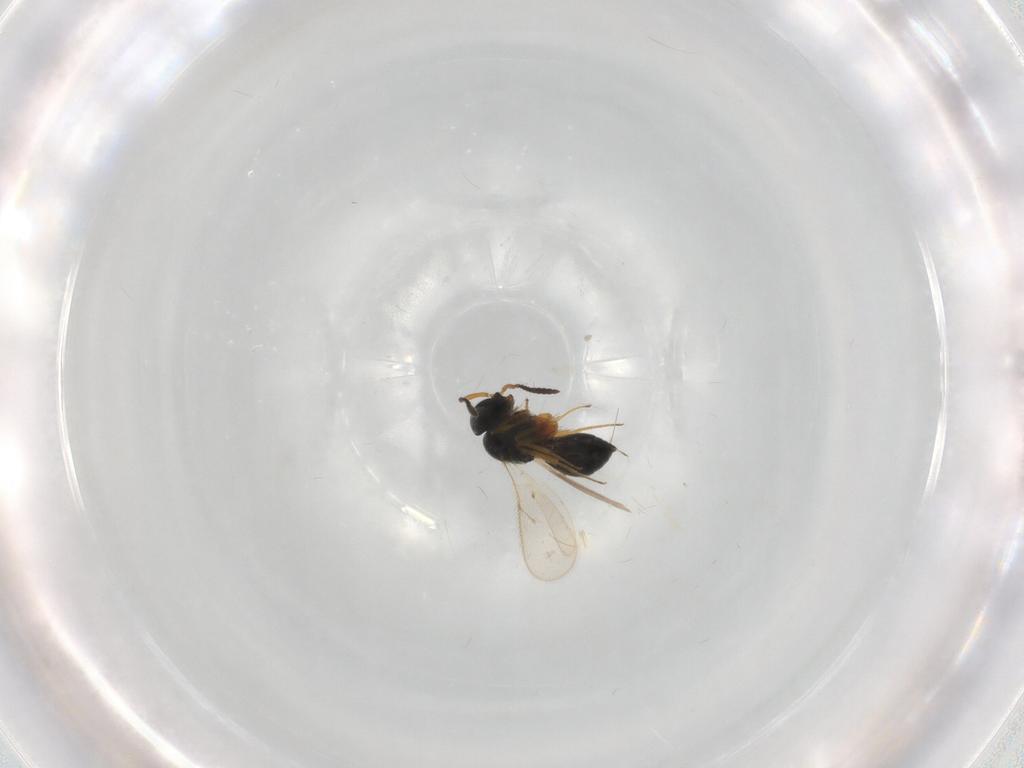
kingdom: Animalia
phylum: Arthropoda
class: Insecta
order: Hymenoptera
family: Scelionidae
